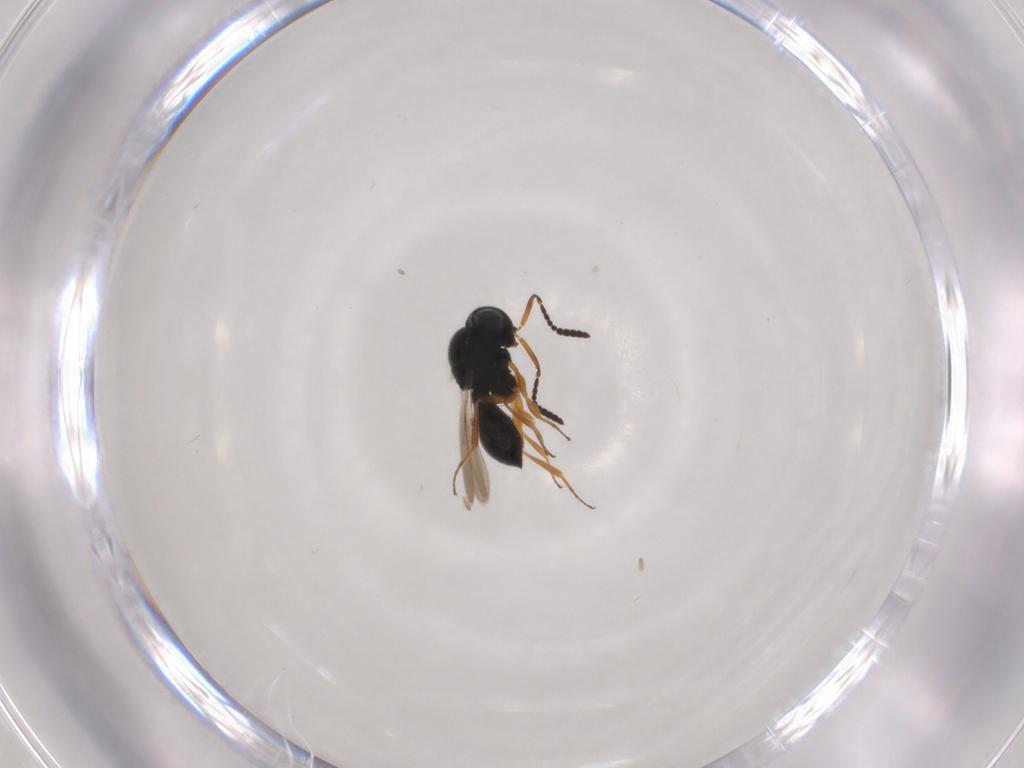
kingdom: Animalia
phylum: Arthropoda
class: Insecta
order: Hymenoptera
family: Scelionidae
